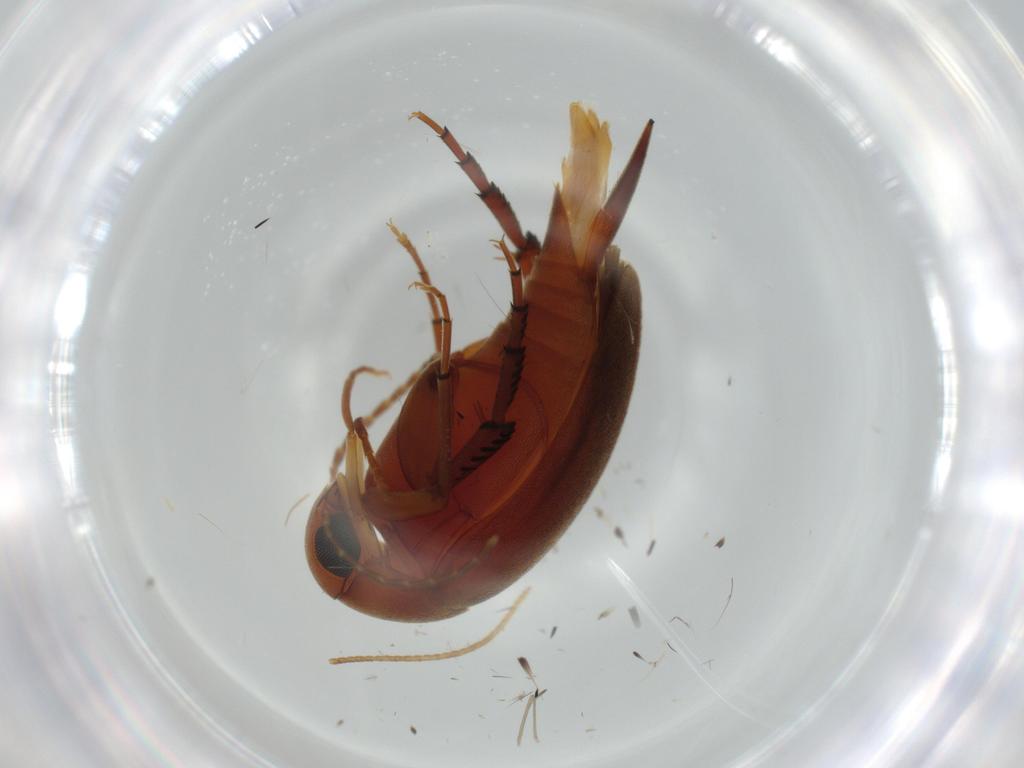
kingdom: Animalia
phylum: Arthropoda
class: Insecta
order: Coleoptera
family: Mordellidae
